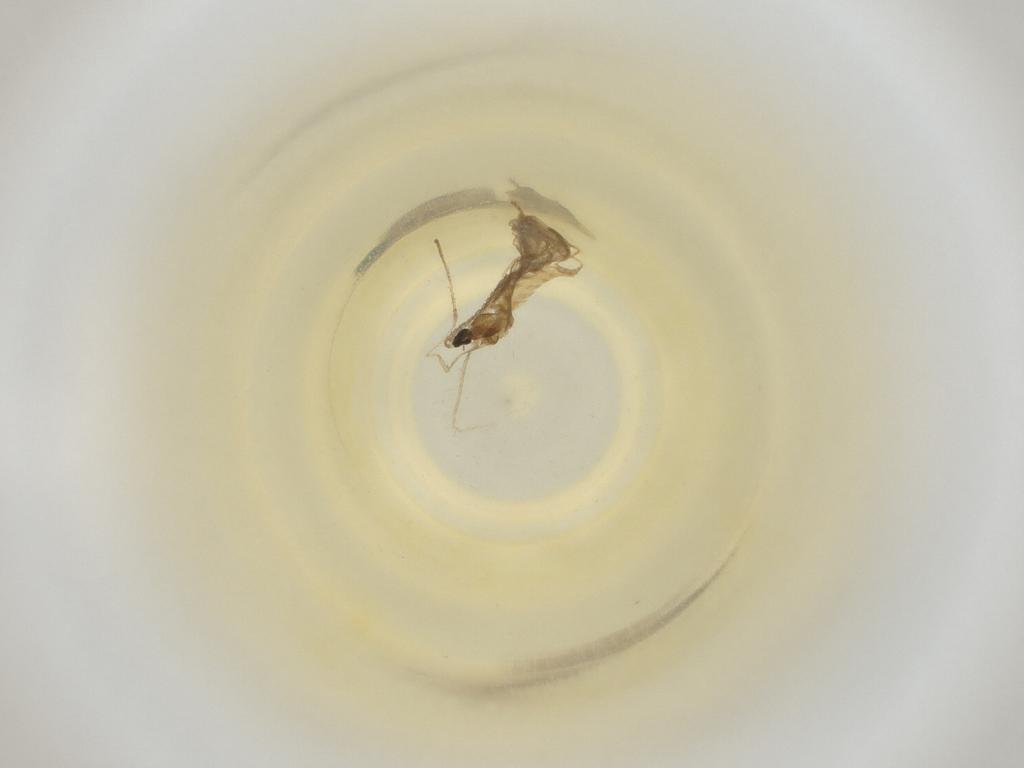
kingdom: Animalia
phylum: Arthropoda
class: Insecta
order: Diptera
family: Cecidomyiidae
